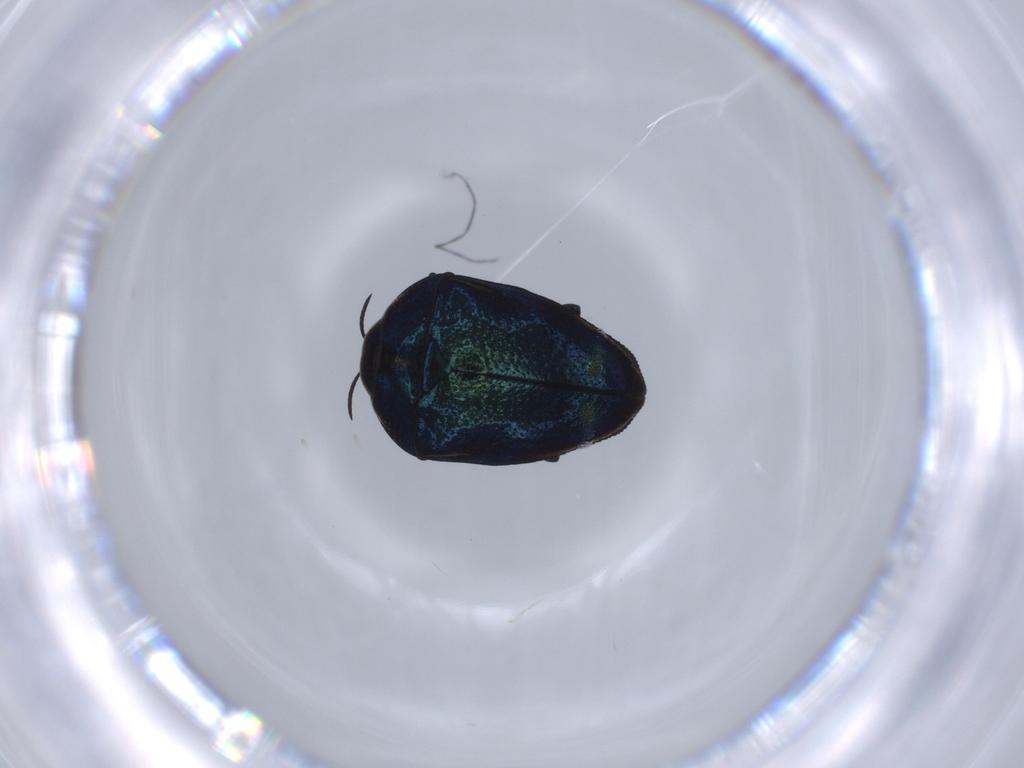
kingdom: Animalia
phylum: Arthropoda
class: Insecta
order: Coleoptera
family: Buprestidae
